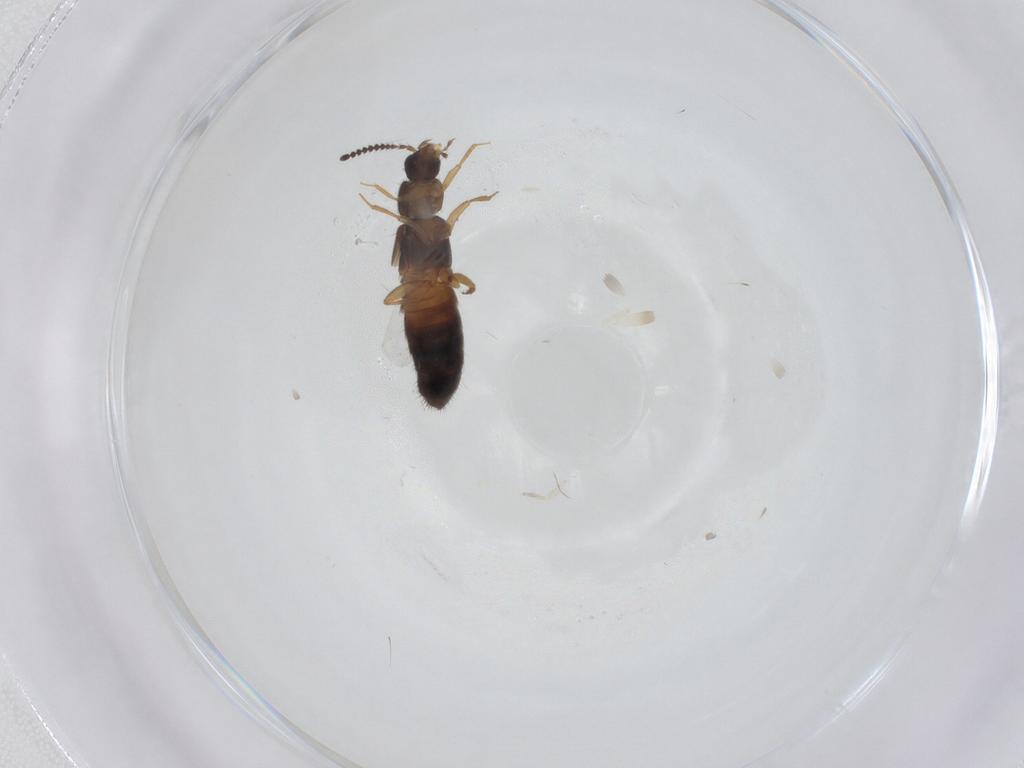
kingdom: Animalia
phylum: Arthropoda
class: Insecta
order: Coleoptera
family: Staphylinidae
